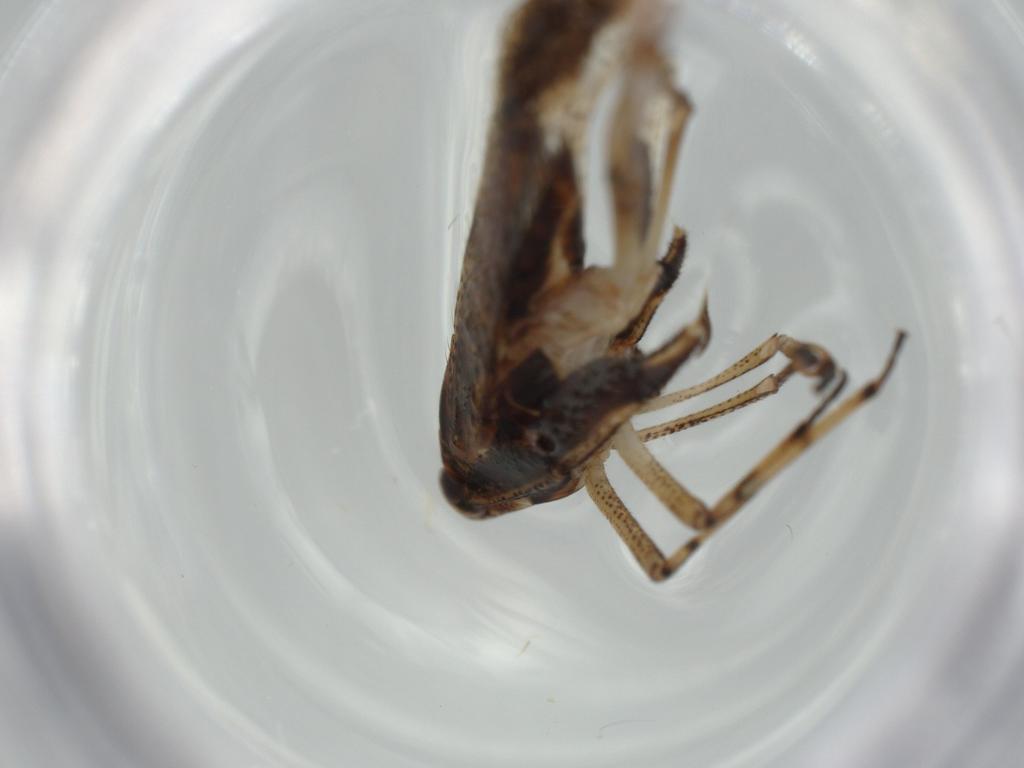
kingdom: Animalia
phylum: Arthropoda
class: Insecta
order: Hemiptera
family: Delphacidae
